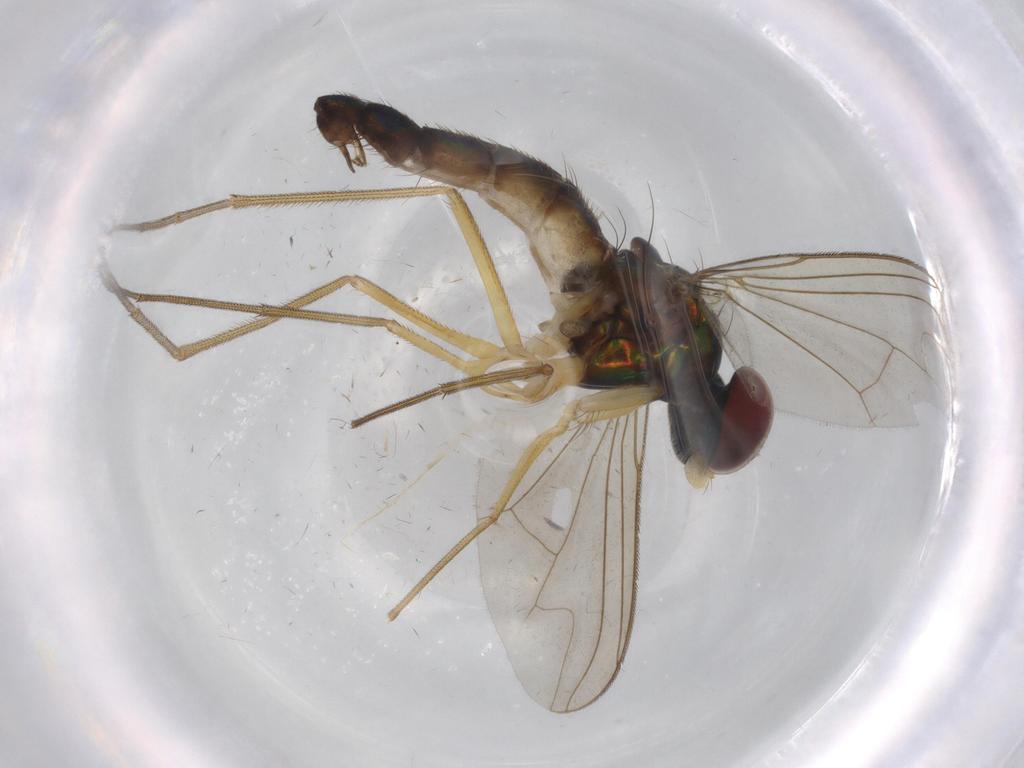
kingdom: Animalia
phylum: Arthropoda
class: Insecta
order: Diptera
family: Dolichopodidae
